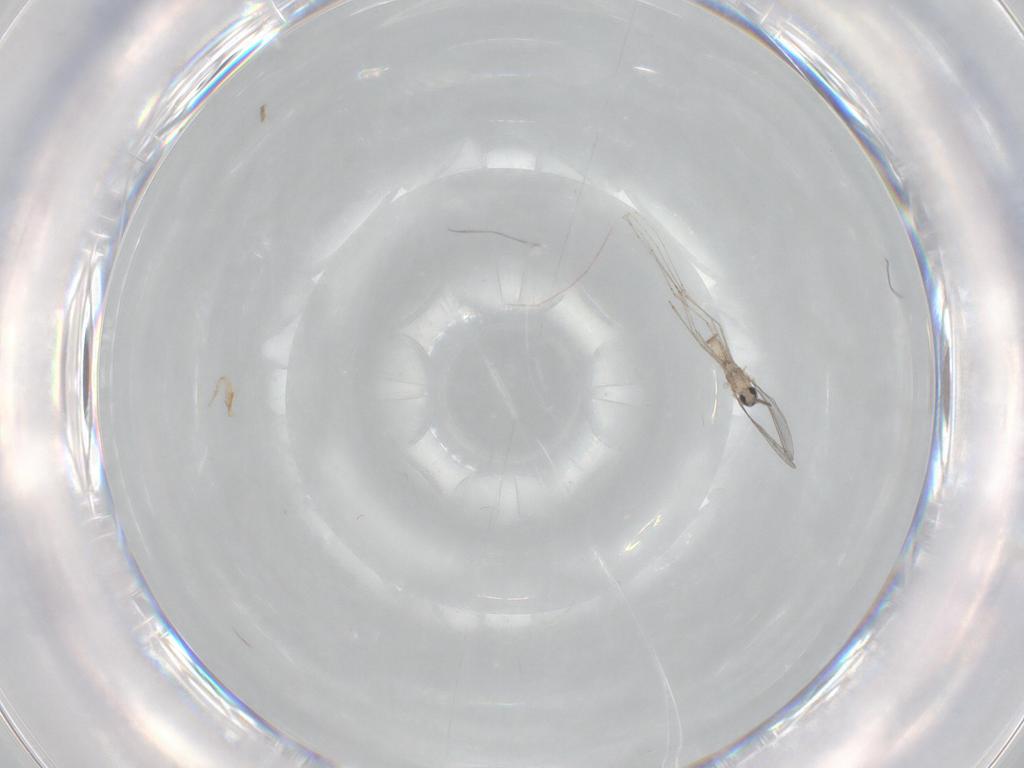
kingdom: Animalia
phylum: Arthropoda
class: Insecta
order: Diptera
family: Cecidomyiidae
